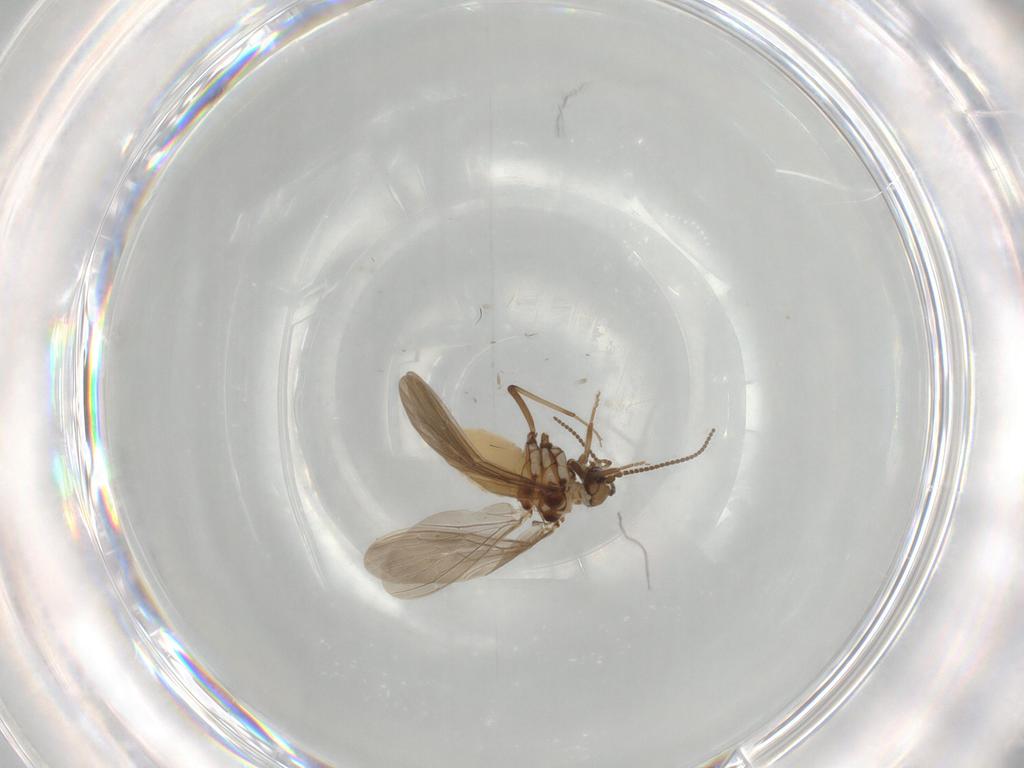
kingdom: Animalia
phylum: Arthropoda
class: Insecta
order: Neuroptera
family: Coniopterygidae
